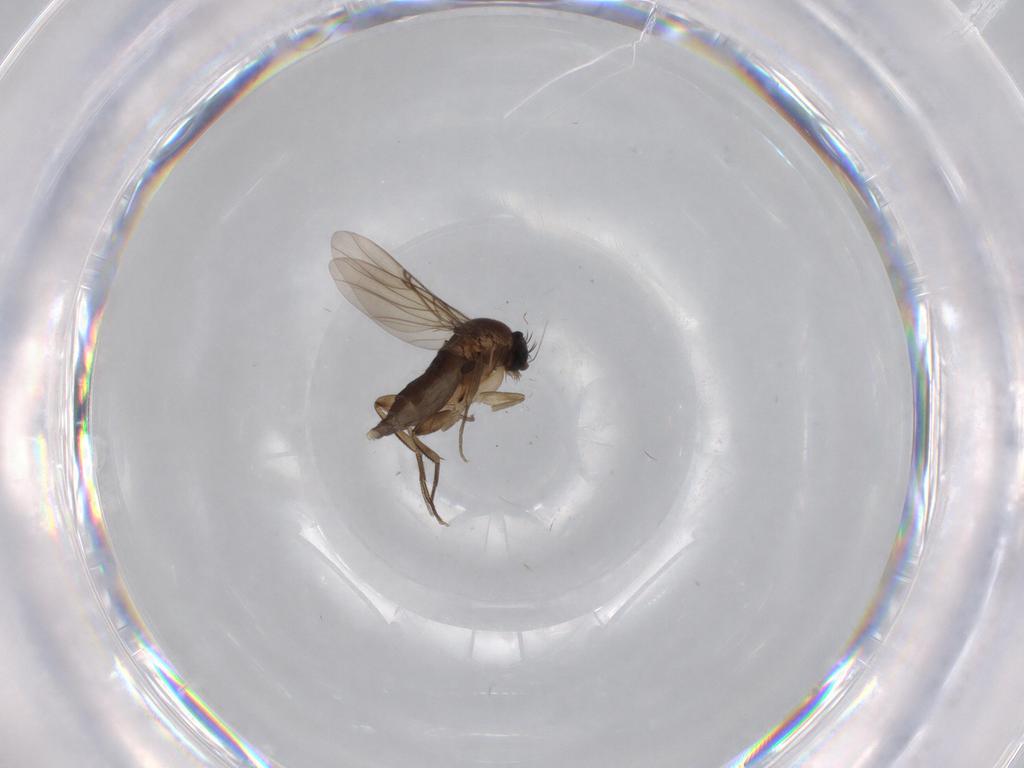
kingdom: Animalia
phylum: Arthropoda
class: Insecta
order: Diptera
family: Phoridae
